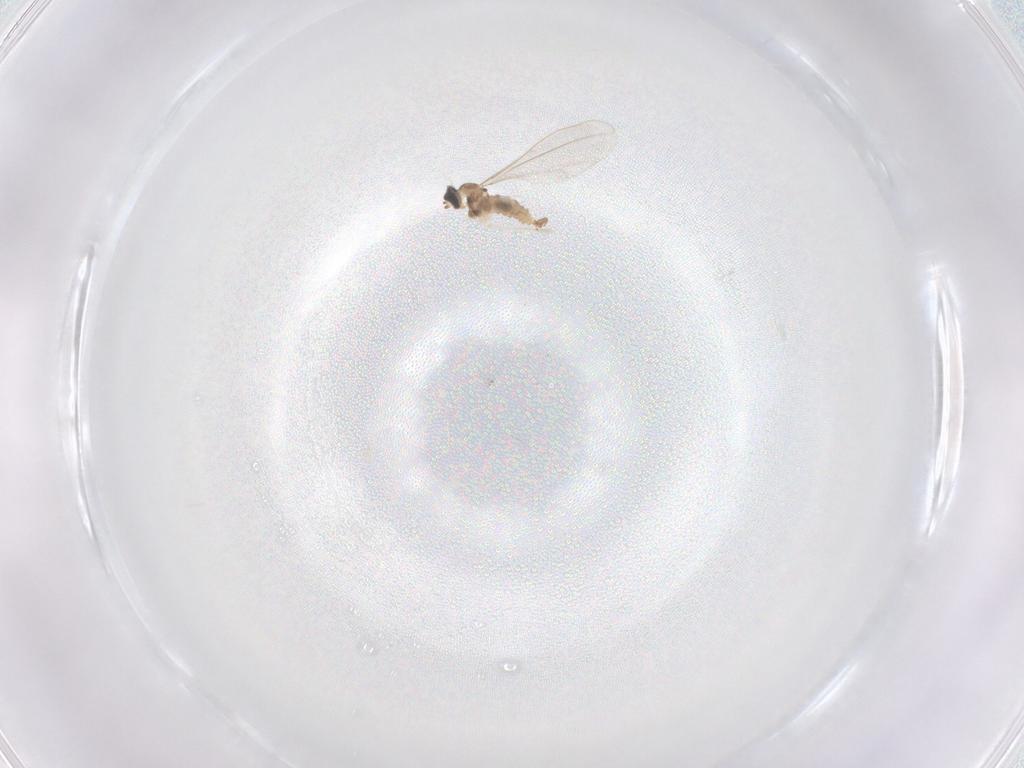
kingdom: Animalia
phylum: Arthropoda
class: Insecta
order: Diptera
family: Cecidomyiidae
